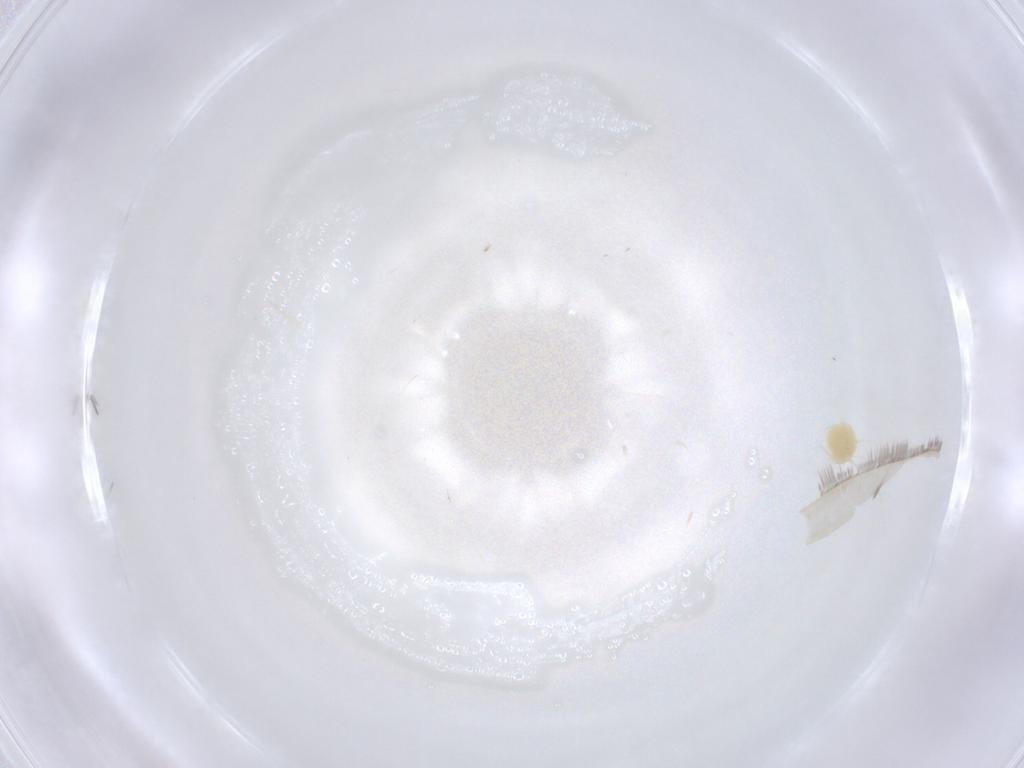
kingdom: Animalia
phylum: Arthropoda
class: Arachnida
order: Trombidiformes
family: Tetranychidae
